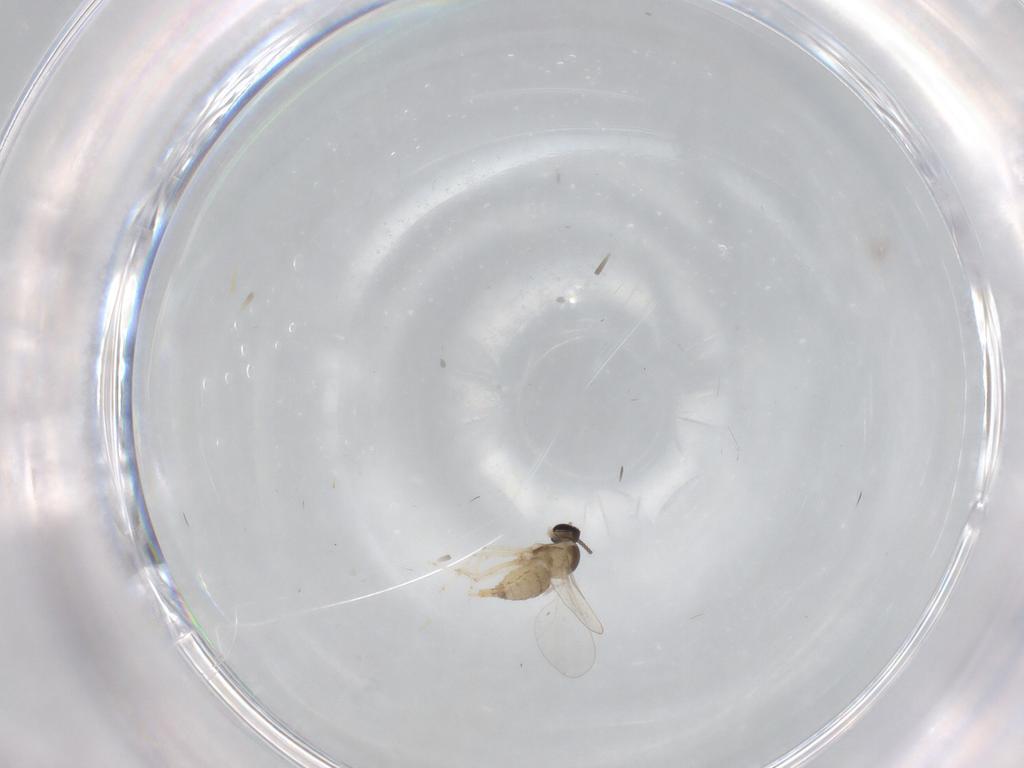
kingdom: Animalia
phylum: Arthropoda
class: Insecta
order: Diptera
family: Cecidomyiidae
